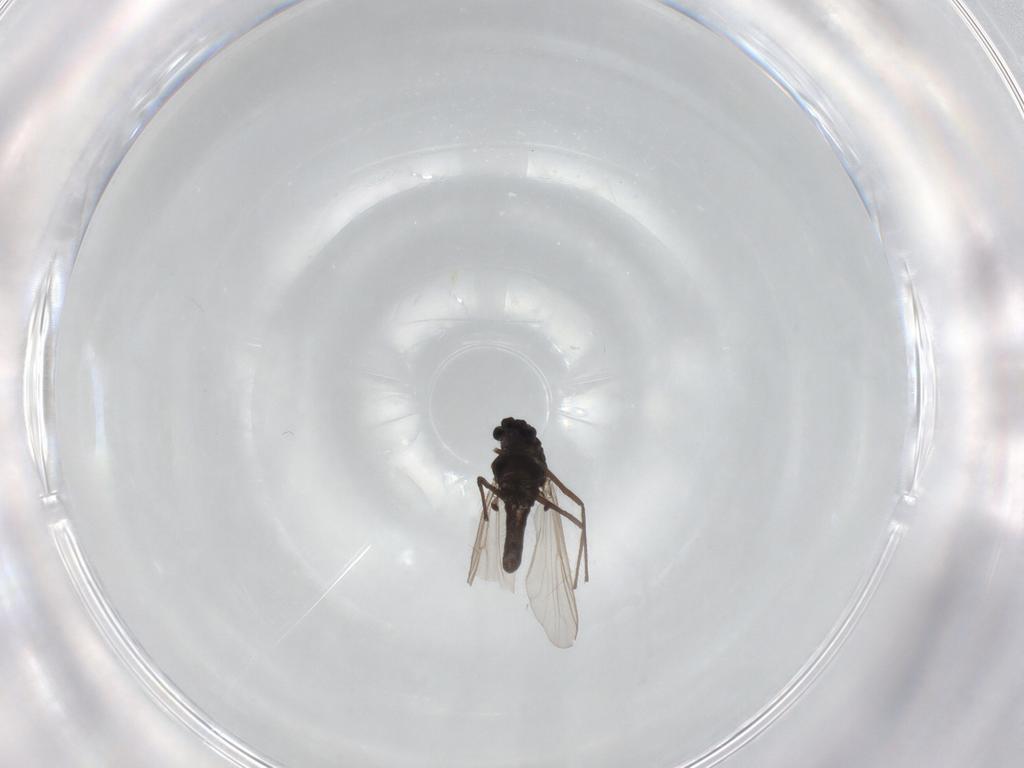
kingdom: Animalia
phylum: Arthropoda
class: Insecta
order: Diptera
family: Chironomidae
